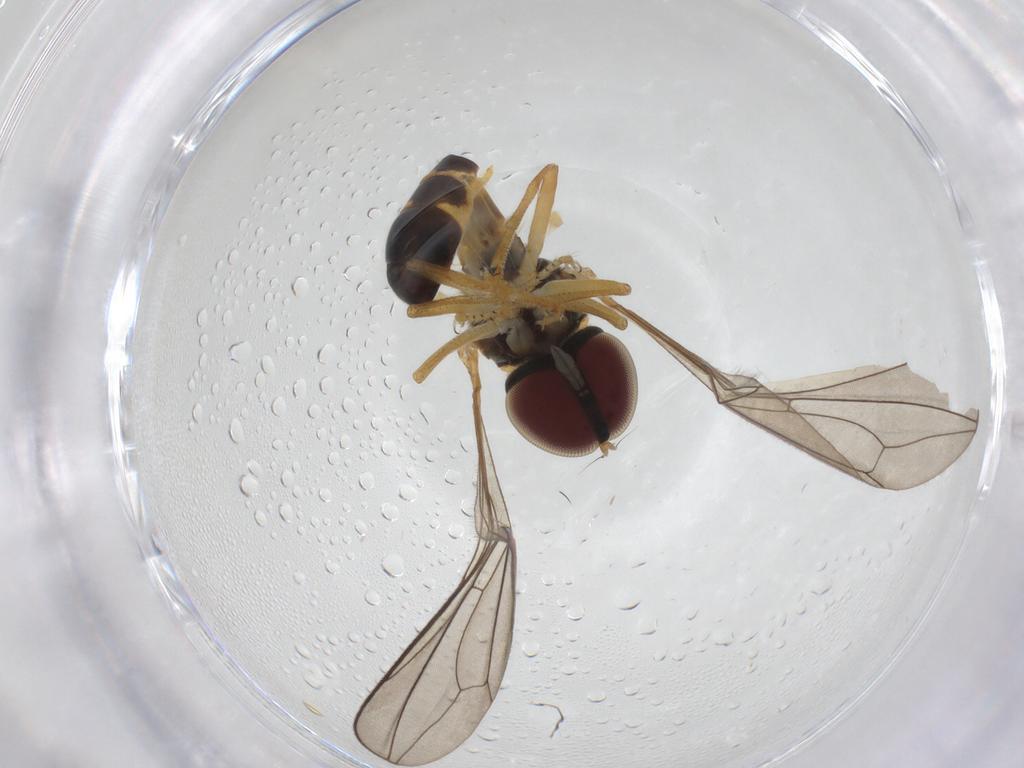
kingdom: Animalia
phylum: Arthropoda
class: Insecta
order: Diptera
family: Pipunculidae
